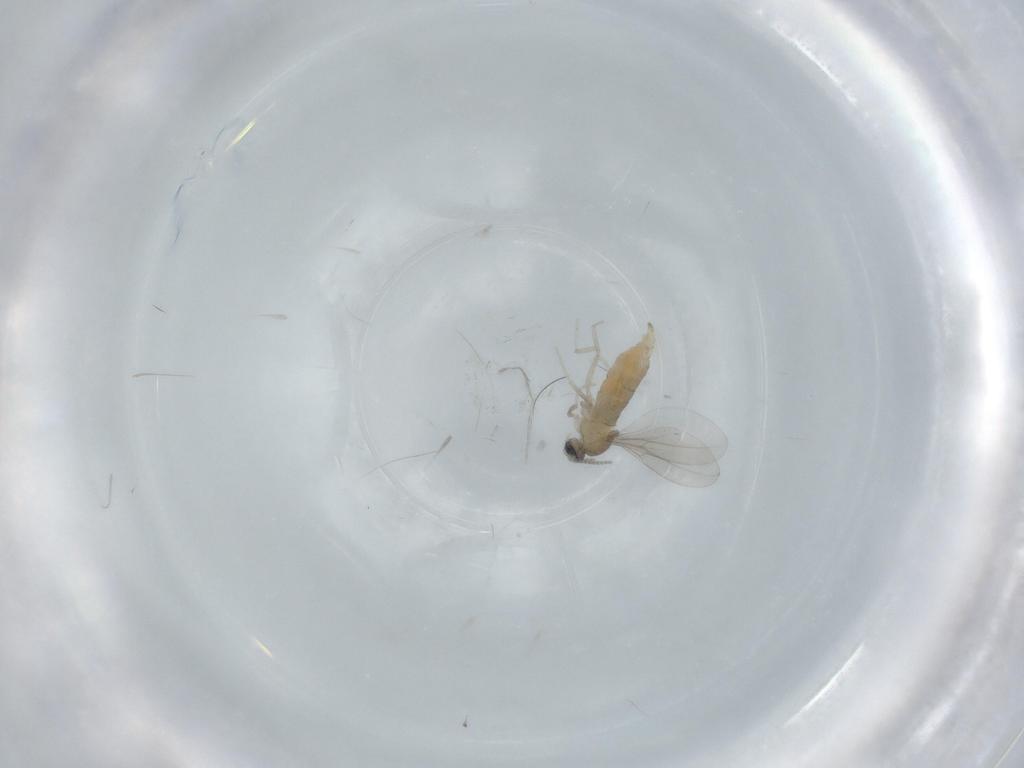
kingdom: Animalia
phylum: Arthropoda
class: Insecta
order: Diptera
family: Cecidomyiidae
